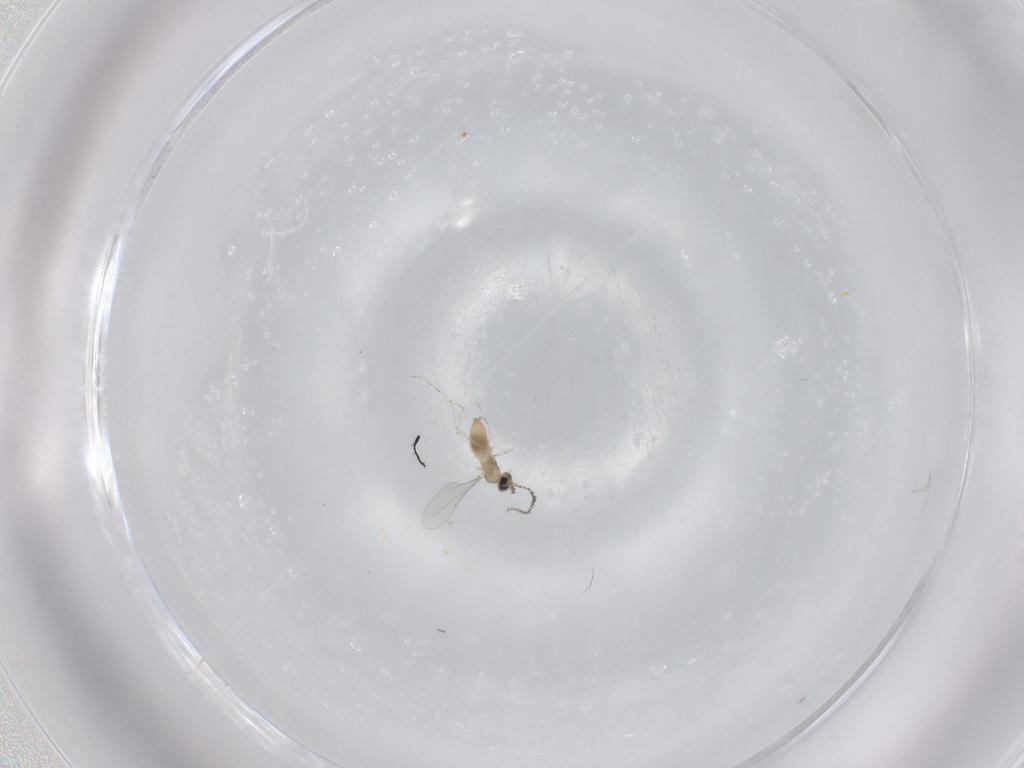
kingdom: Animalia
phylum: Arthropoda
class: Insecta
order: Diptera
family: Cecidomyiidae
